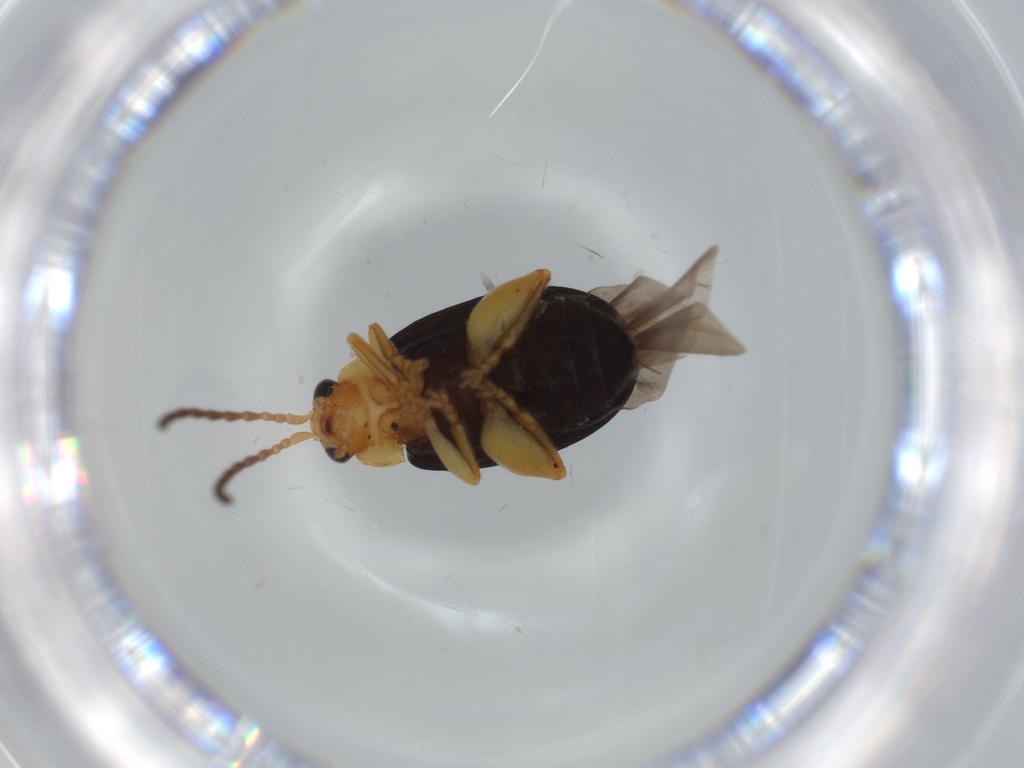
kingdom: Animalia
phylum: Arthropoda
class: Insecta
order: Coleoptera
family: Chrysomelidae
